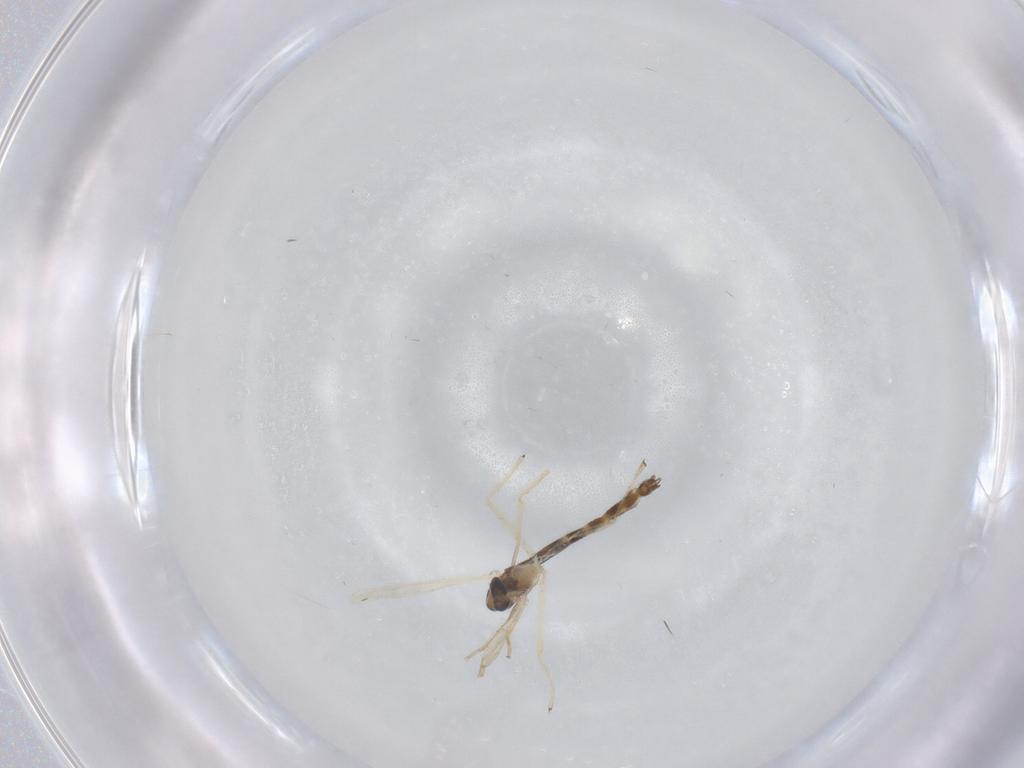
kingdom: Animalia
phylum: Arthropoda
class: Insecta
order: Diptera
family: Chironomidae
